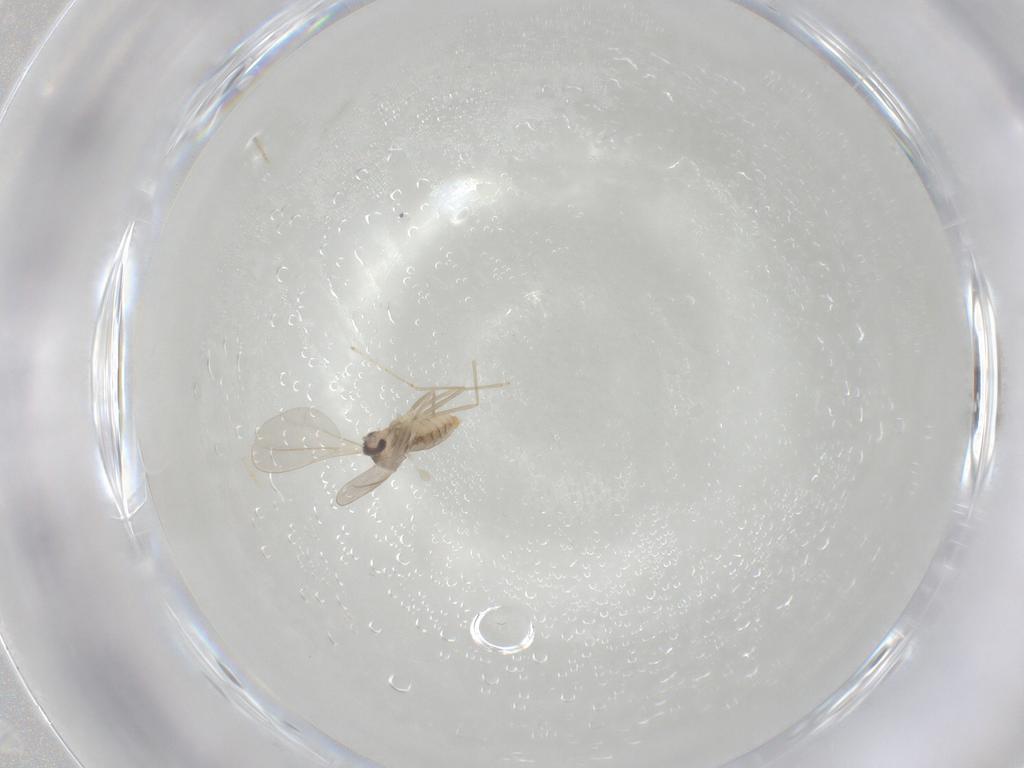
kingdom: Animalia
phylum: Arthropoda
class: Insecta
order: Diptera
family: Cecidomyiidae
